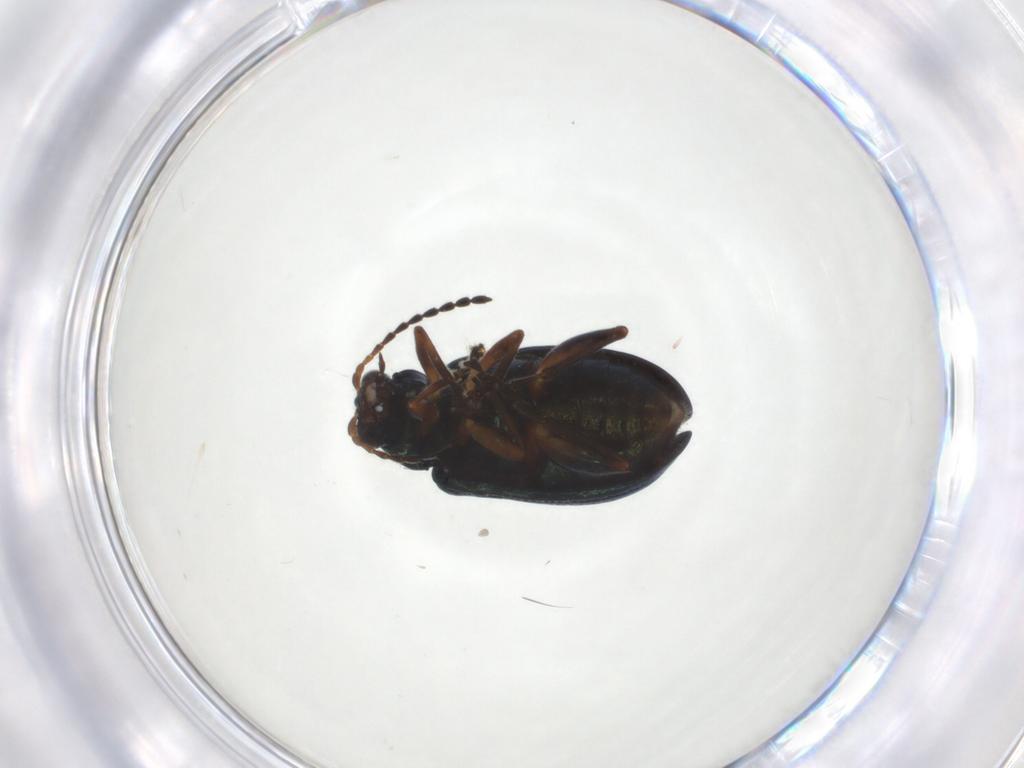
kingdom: Animalia
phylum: Arthropoda
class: Insecta
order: Coleoptera
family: Chrysomelidae
